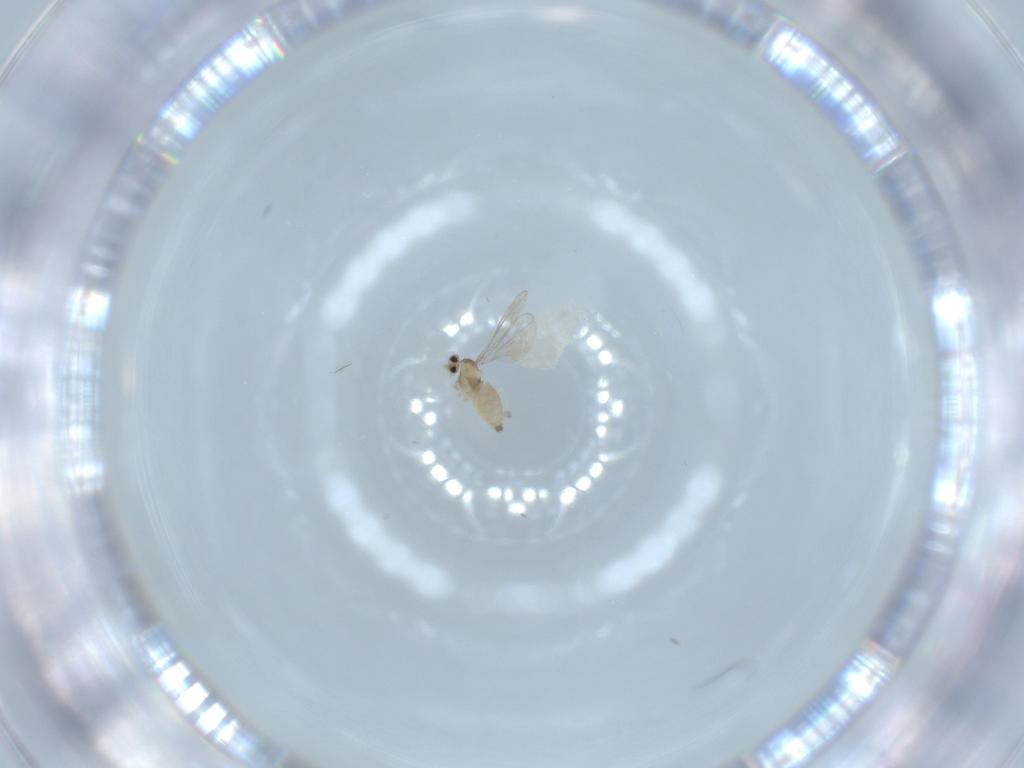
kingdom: Animalia
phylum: Arthropoda
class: Insecta
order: Diptera
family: Cecidomyiidae
